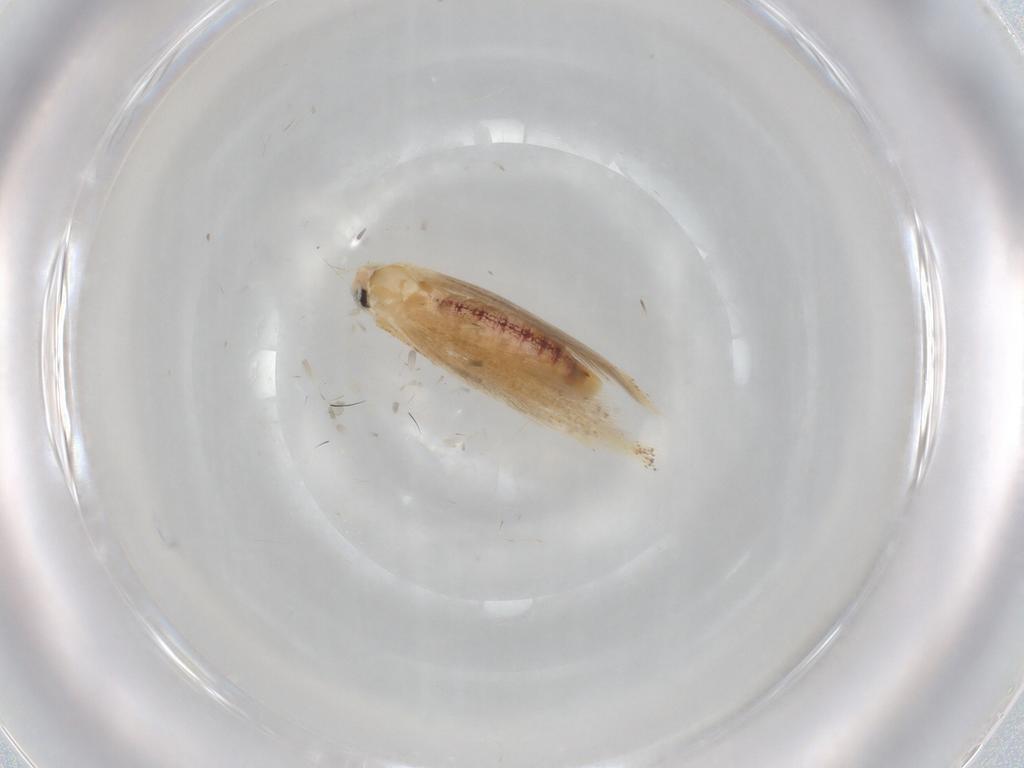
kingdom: Animalia
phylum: Arthropoda
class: Insecta
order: Lepidoptera
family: Bucculatricidae
